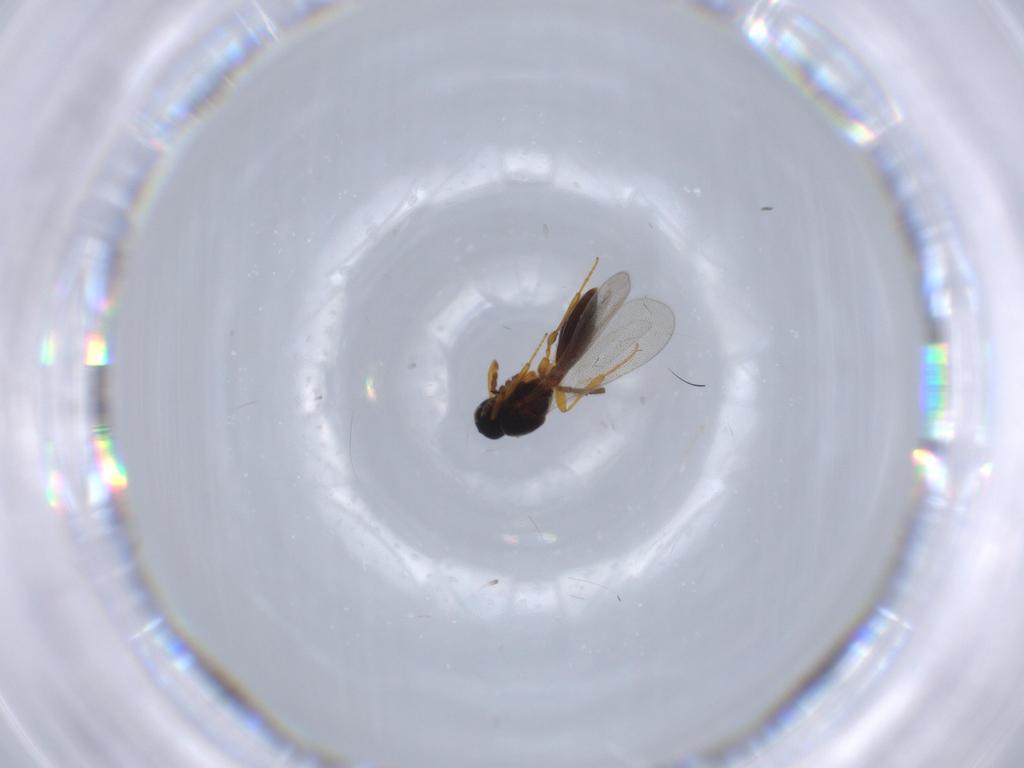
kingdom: Animalia
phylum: Arthropoda
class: Insecta
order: Hymenoptera
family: Platygastridae
